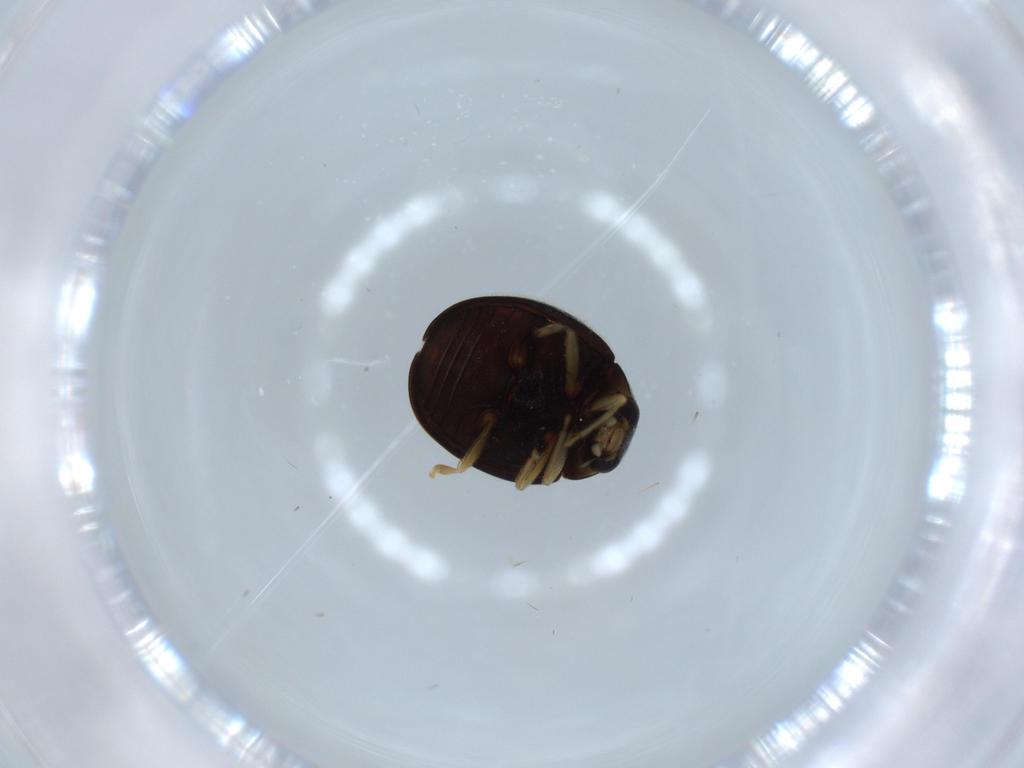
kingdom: Animalia
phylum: Arthropoda
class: Insecta
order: Coleoptera
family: Coccinellidae
